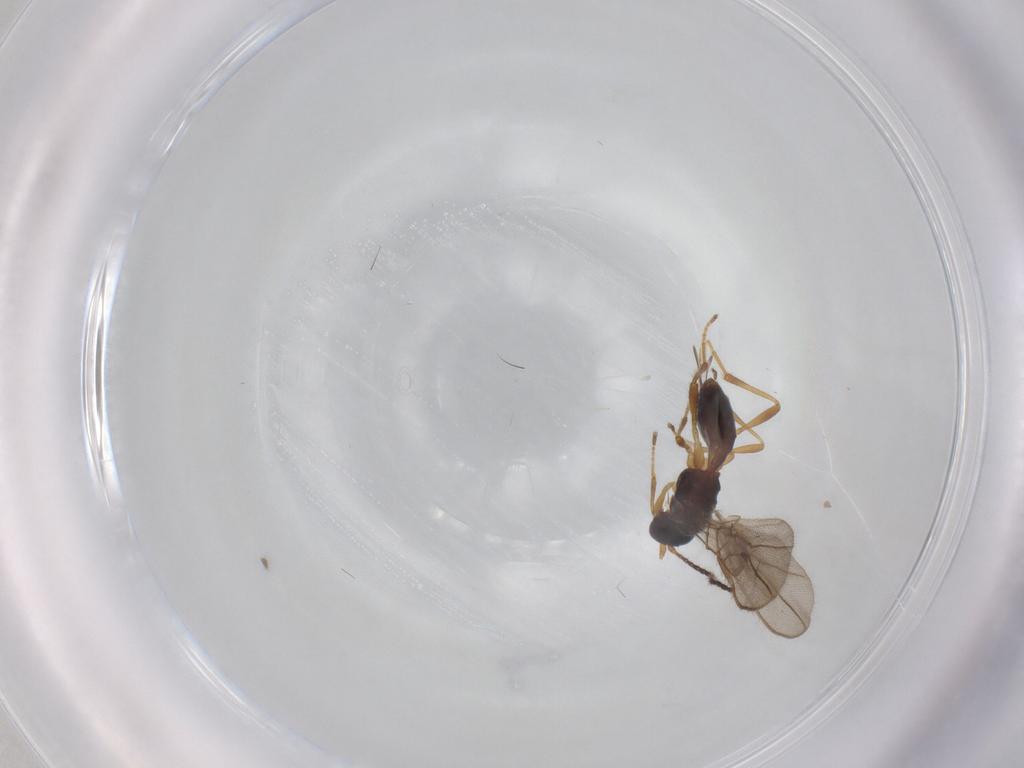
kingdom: Animalia
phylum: Arthropoda
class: Insecta
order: Hymenoptera
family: Braconidae
